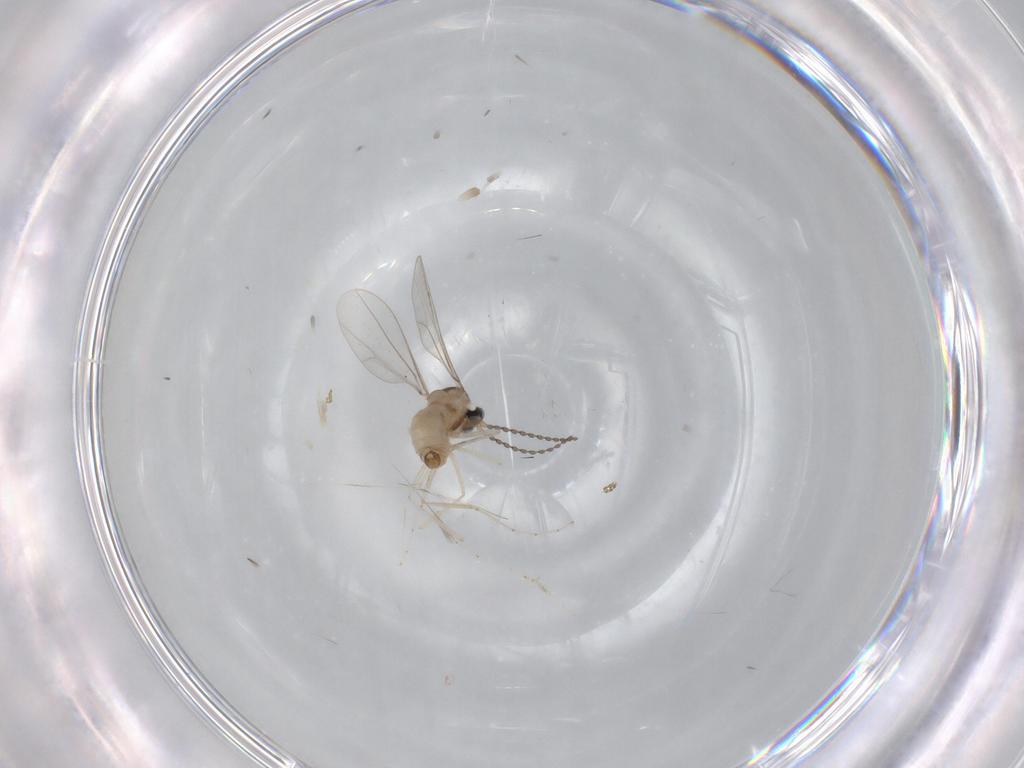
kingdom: Animalia
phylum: Arthropoda
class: Insecta
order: Diptera
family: Cecidomyiidae
